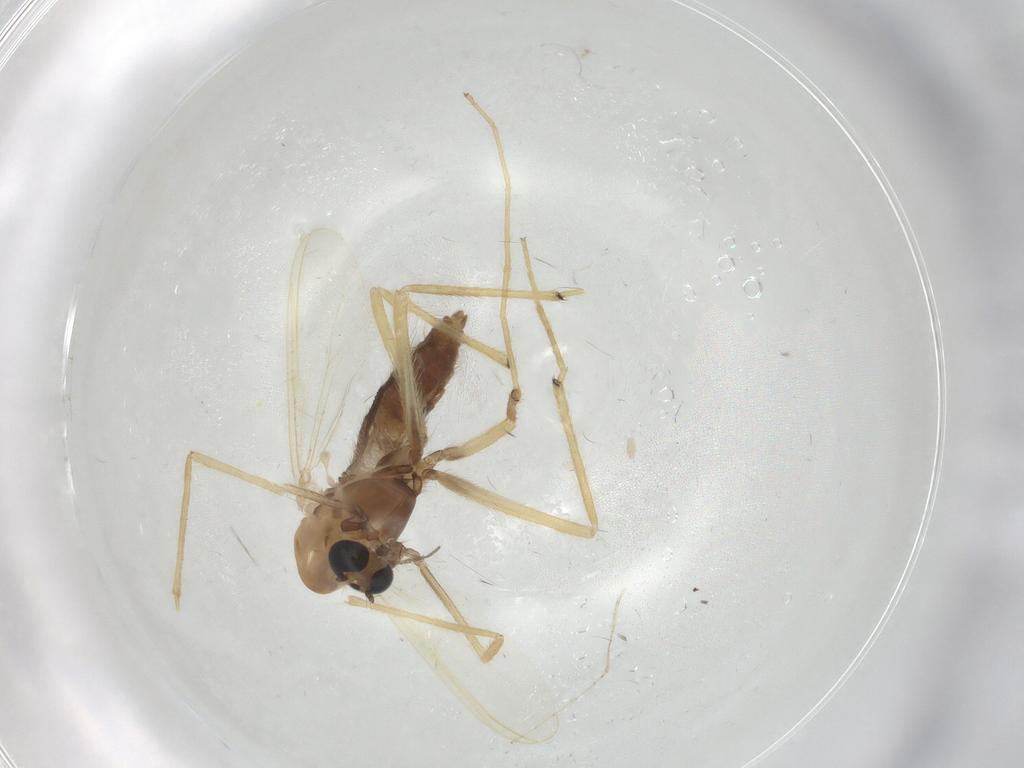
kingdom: Animalia
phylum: Arthropoda
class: Insecta
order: Diptera
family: Chironomidae
